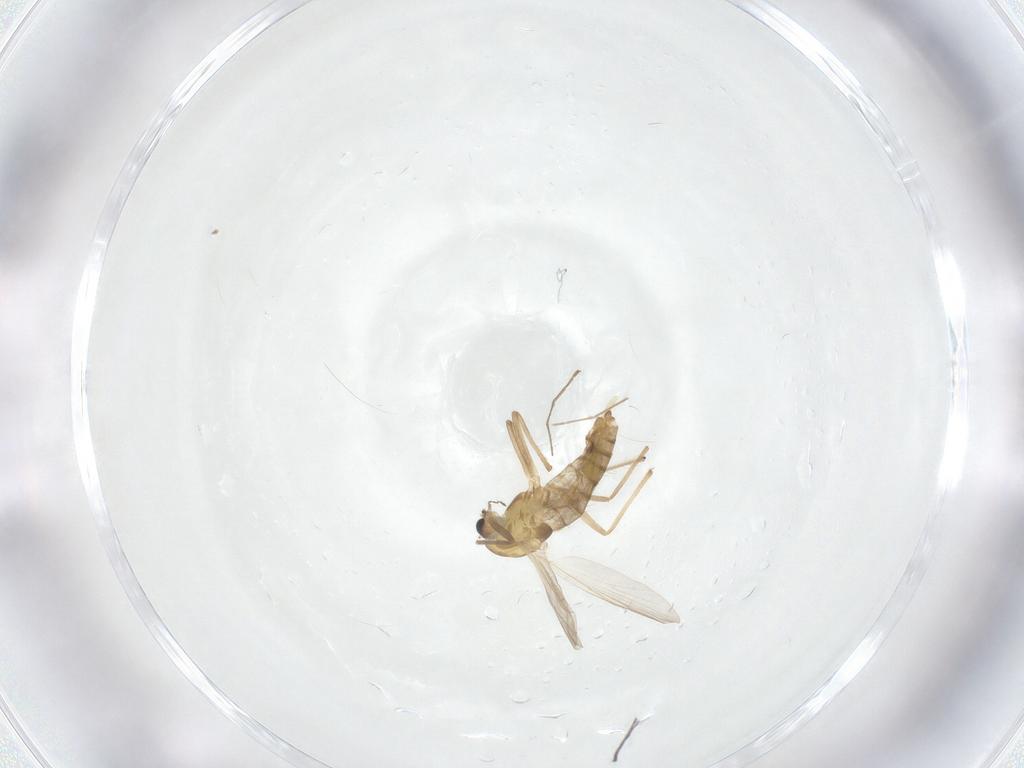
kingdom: Animalia
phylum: Arthropoda
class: Insecta
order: Diptera
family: Chironomidae
